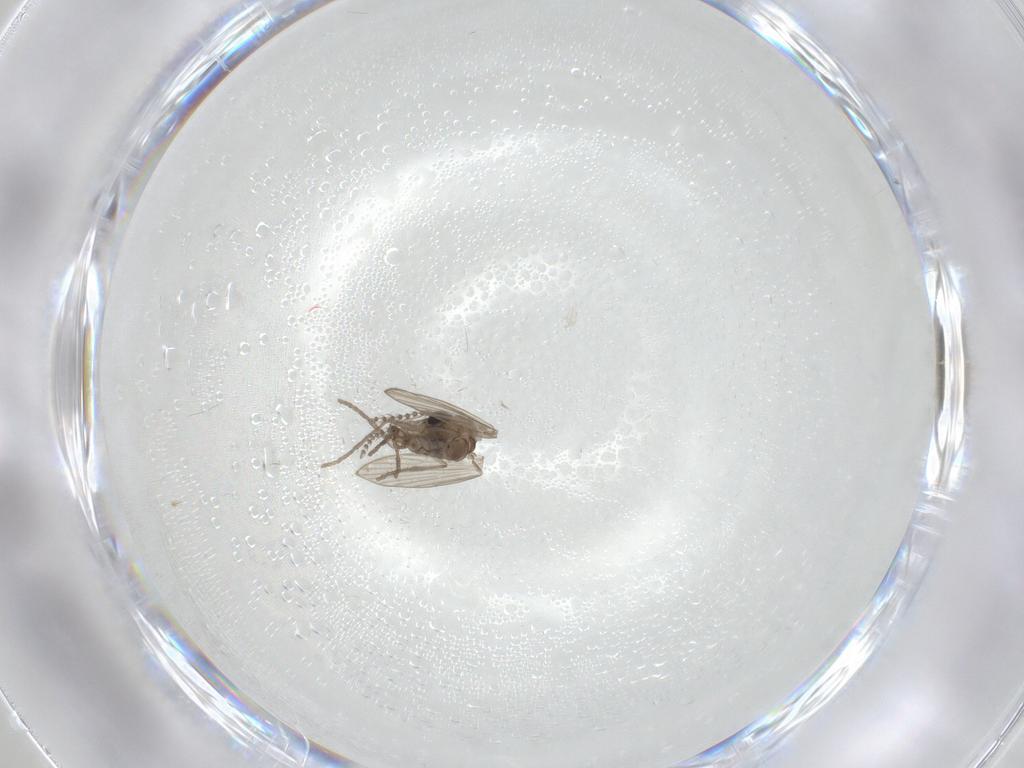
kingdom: Animalia
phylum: Arthropoda
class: Insecta
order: Diptera
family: Psychodidae
